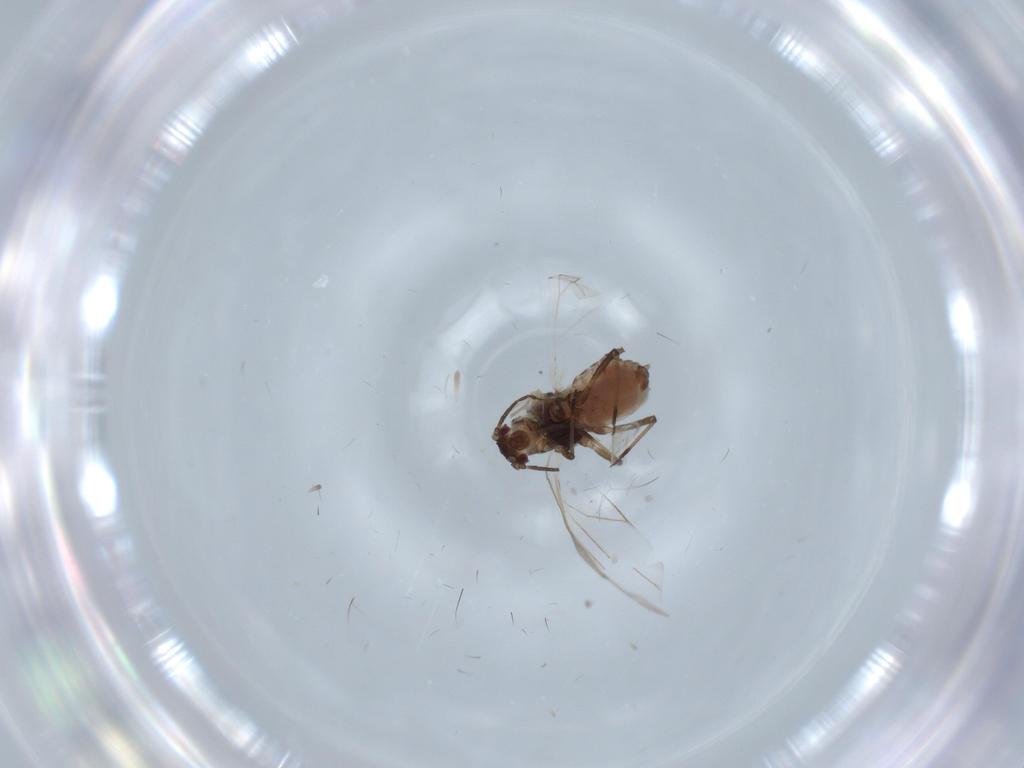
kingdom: Animalia
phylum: Arthropoda
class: Insecta
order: Hemiptera
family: Aphididae
